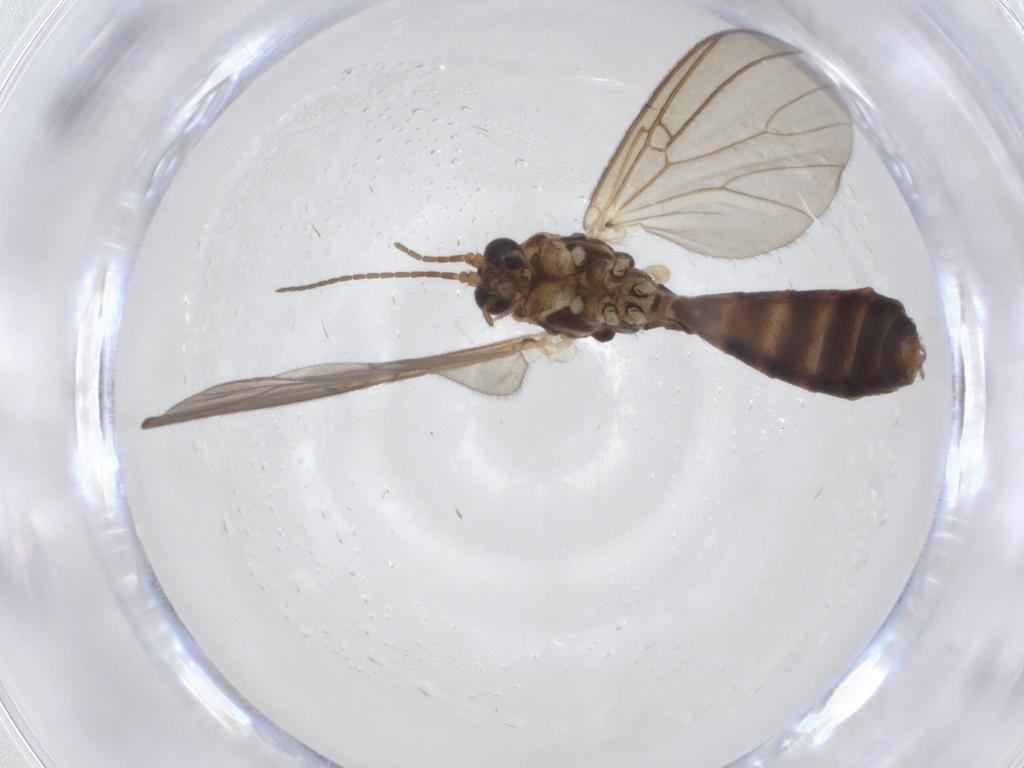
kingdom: Animalia
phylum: Arthropoda
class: Insecta
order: Diptera
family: Mycetophilidae
